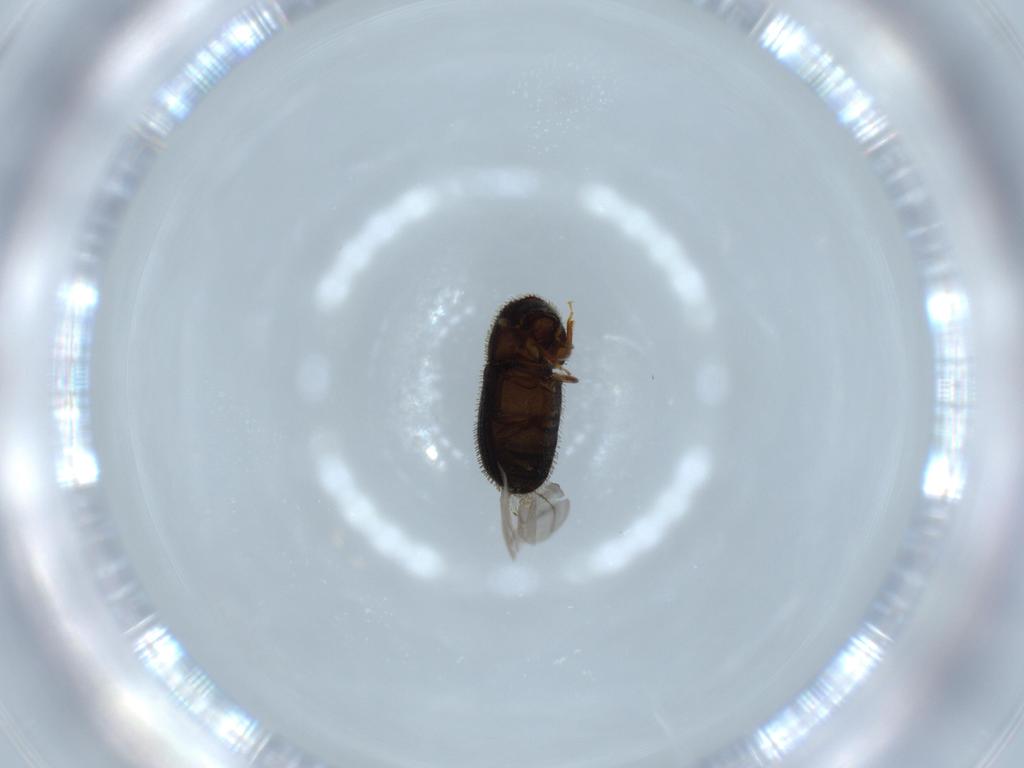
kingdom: Animalia
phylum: Arthropoda
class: Insecta
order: Coleoptera
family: Curculionidae
